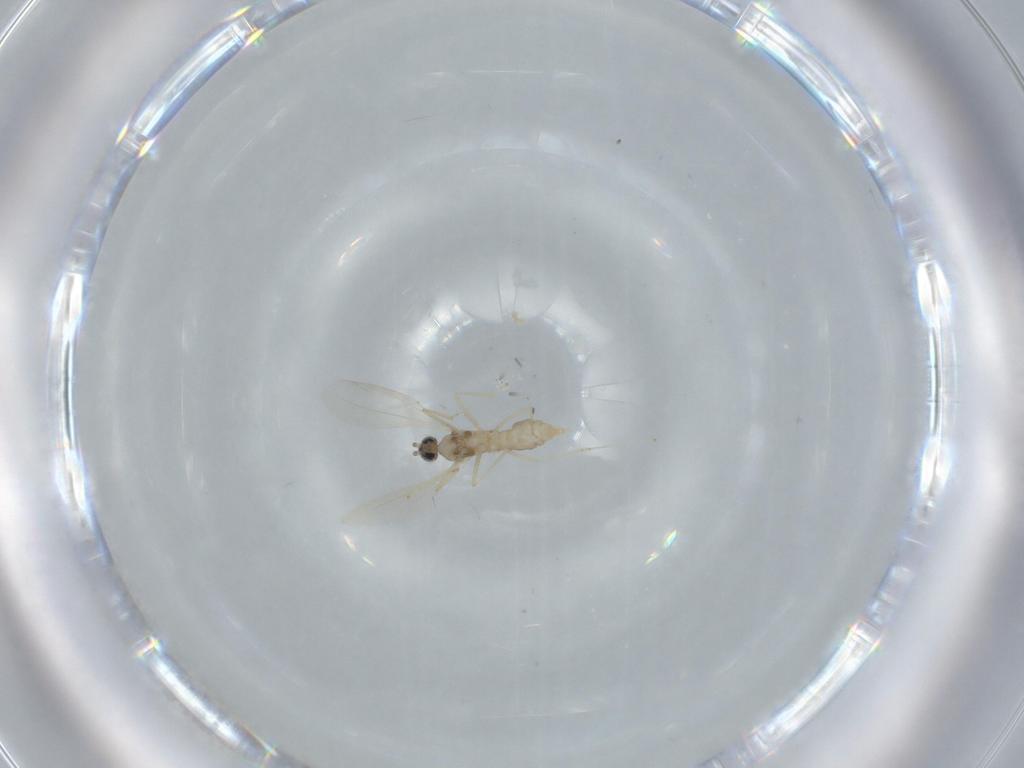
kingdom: Animalia
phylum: Arthropoda
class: Insecta
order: Diptera
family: Cecidomyiidae
